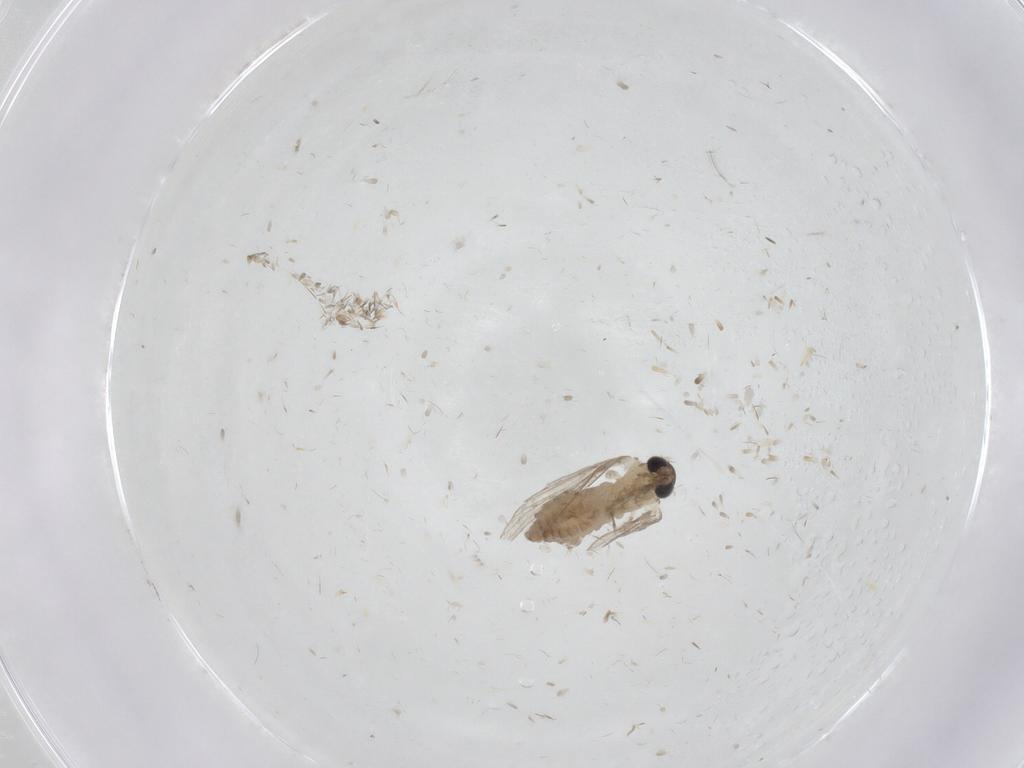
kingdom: Animalia
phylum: Arthropoda
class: Insecta
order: Diptera
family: Psychodidae
